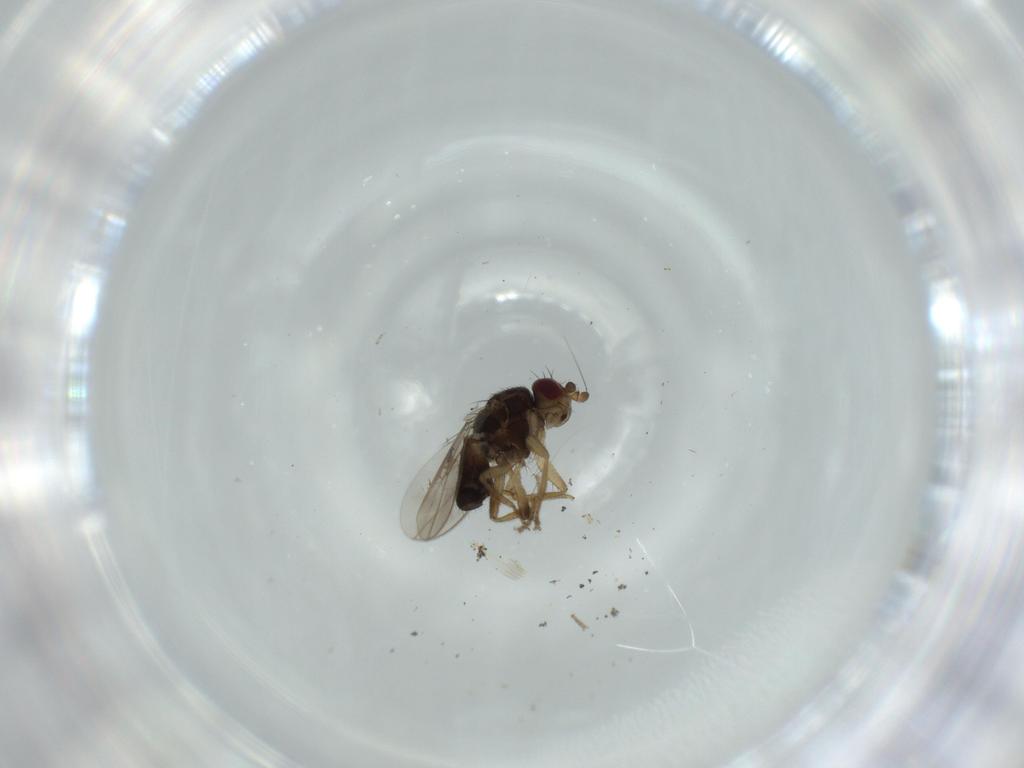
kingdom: Animalia
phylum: Arthropoda
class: Insecta
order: Diptera
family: Sphaeroceridae
